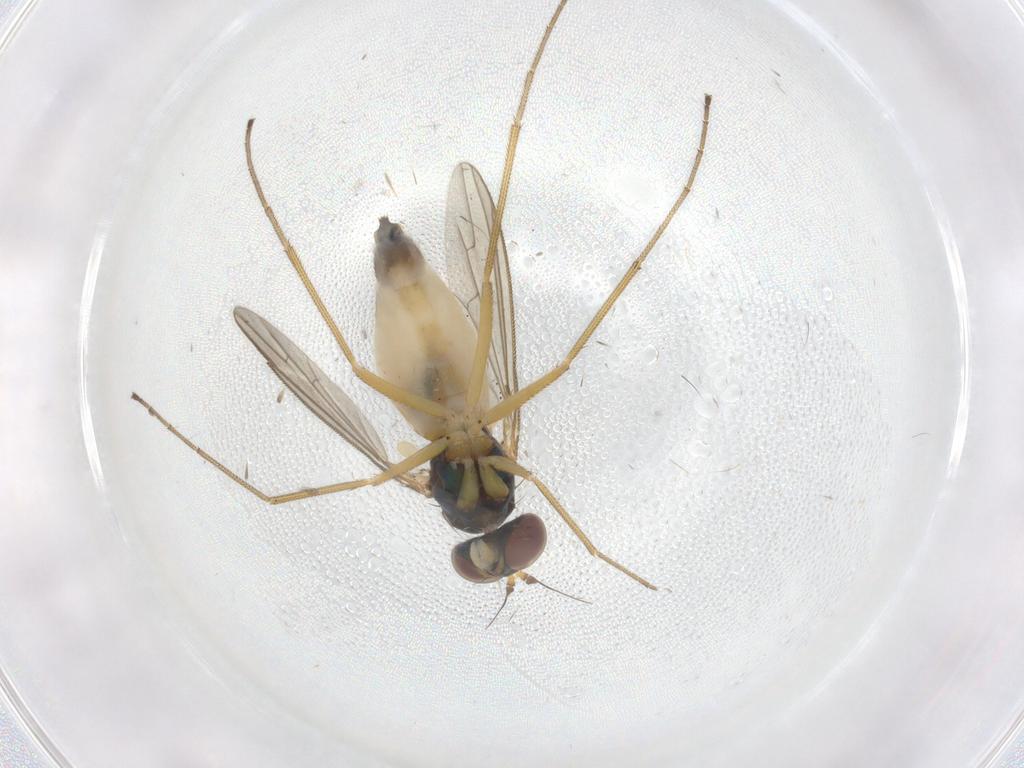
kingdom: Animalia
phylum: Arthropoda
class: Insecta
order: Diptera
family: Dolichopodidae
